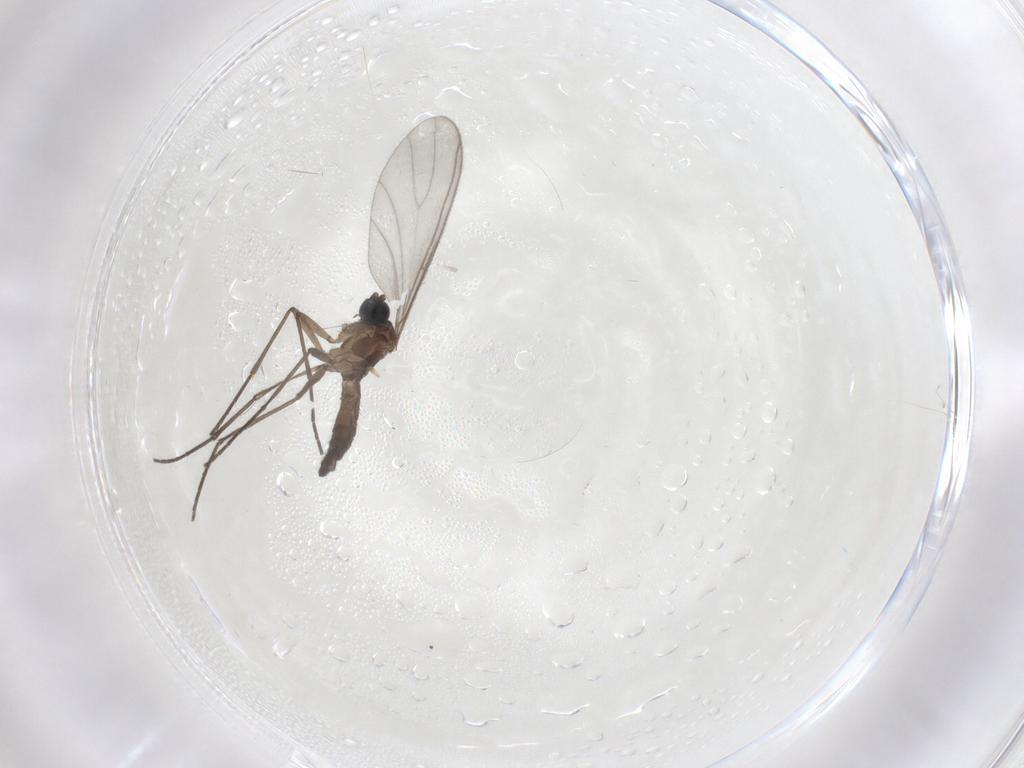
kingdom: Animalia
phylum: Arthropoda
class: Insecta
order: Diptera
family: Sciaridae
